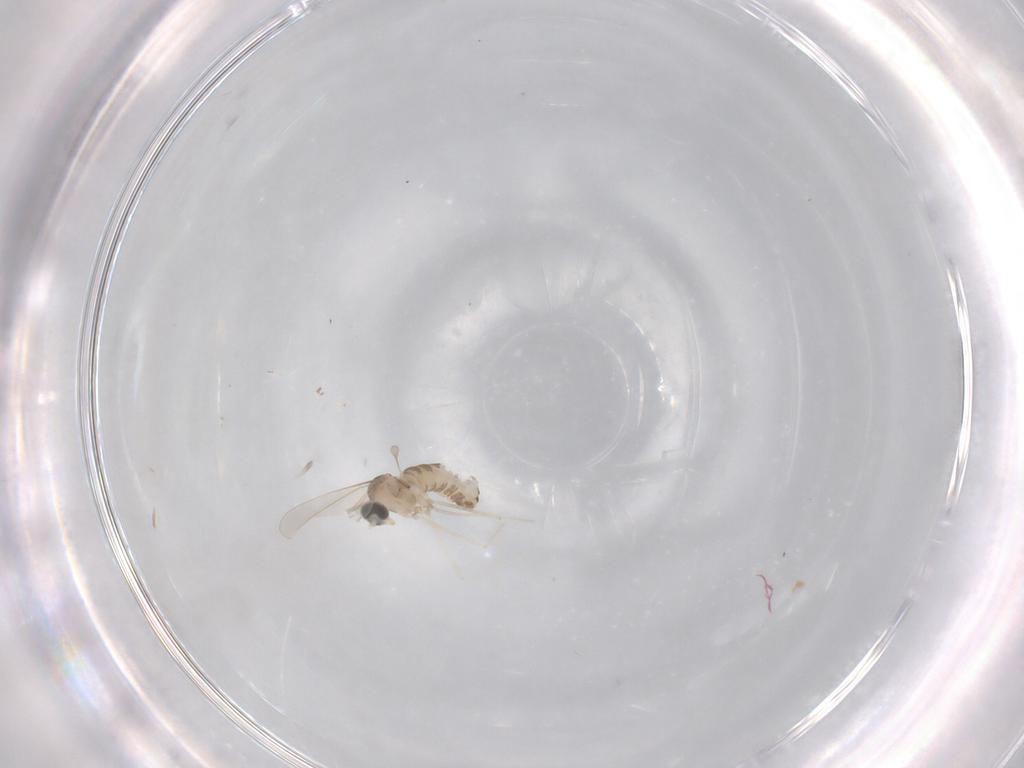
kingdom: Animalia
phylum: Arthropoda
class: Insecta
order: Diptera
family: Cecidomyiidae
